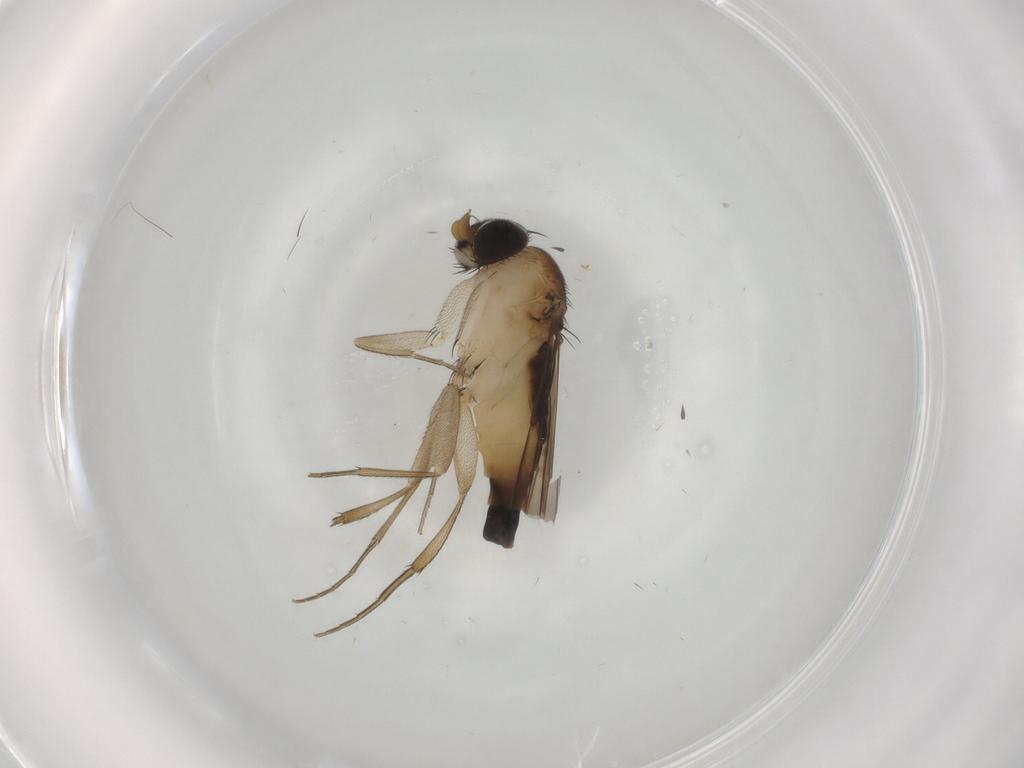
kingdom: Animalia
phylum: Arthropoda
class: Insecta
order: Diptera
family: Phoridae
